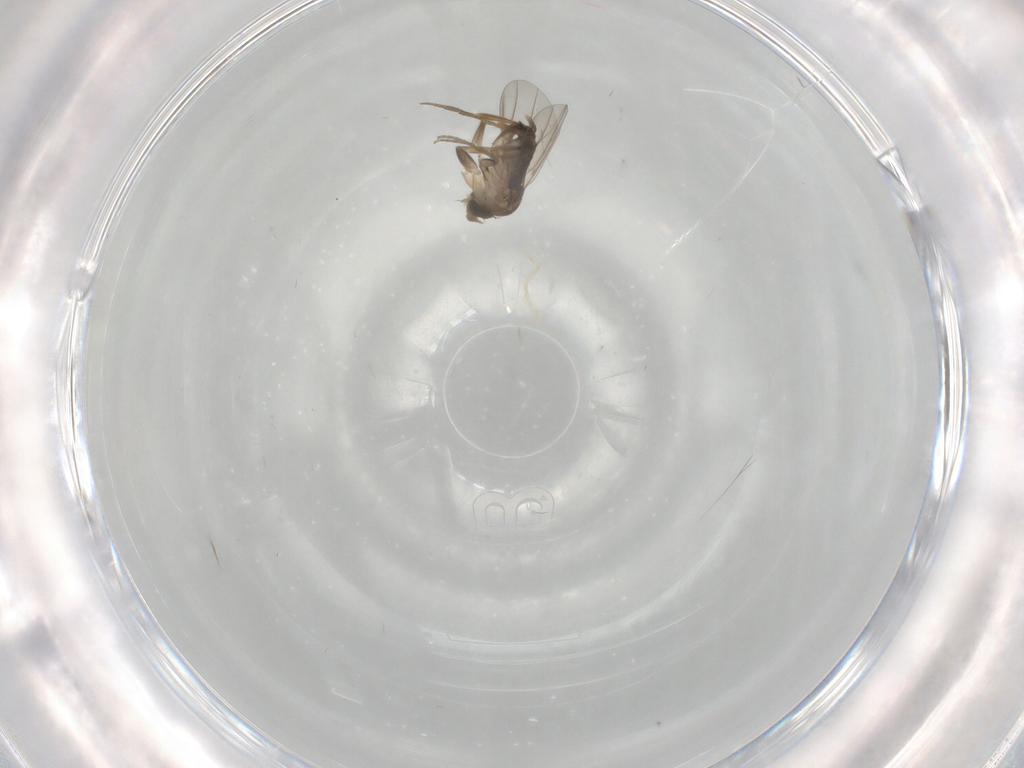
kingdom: Animalia
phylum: Arthropoda
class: Insecta
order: Diptera
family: Phoridae
